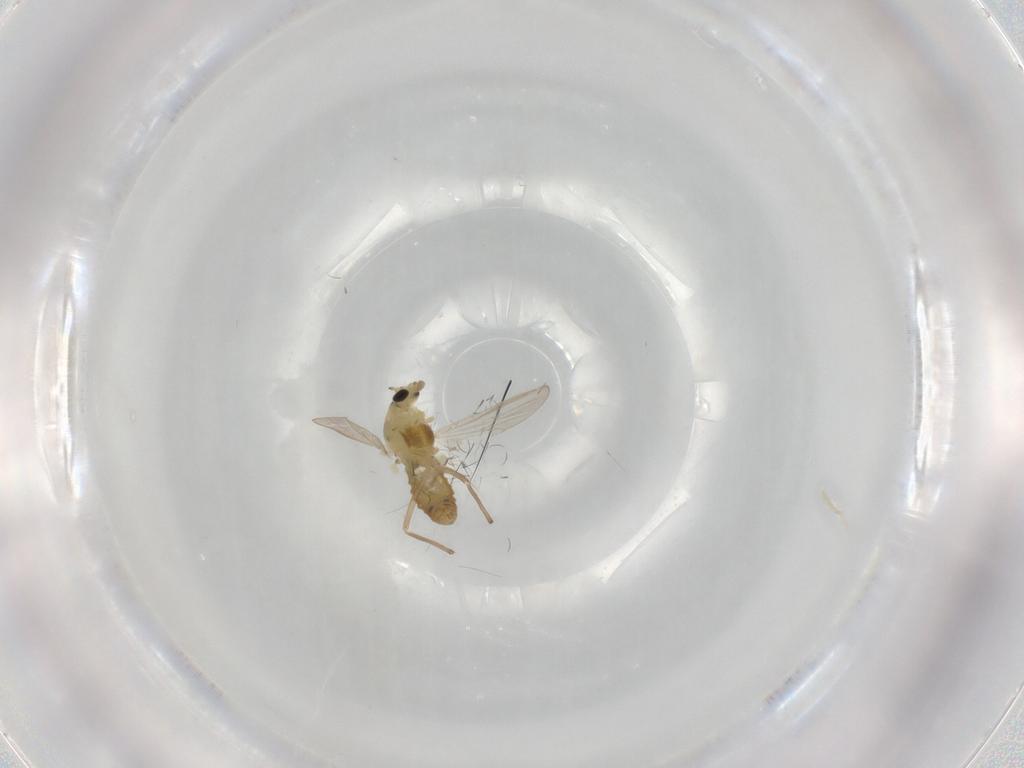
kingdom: Animalia
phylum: Arthropoda
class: Insecta
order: Diptera
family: Chironomidae
